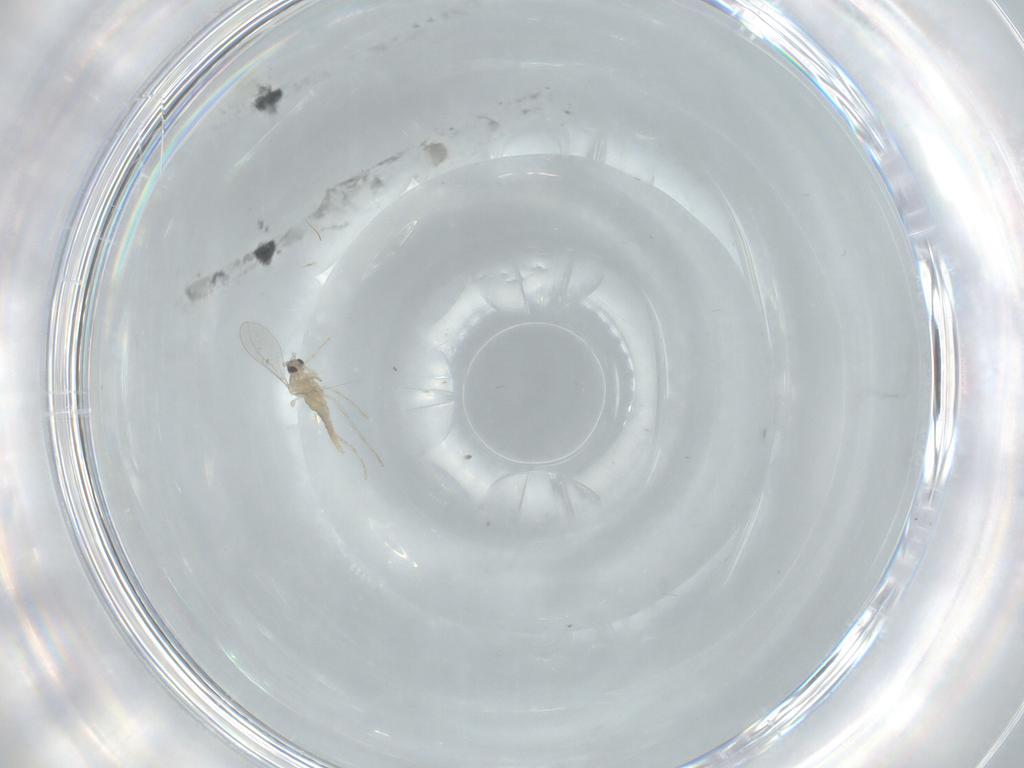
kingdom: Animalia
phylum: Arthropoda
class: Insecta
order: Diptera
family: Cecidomyiidae
